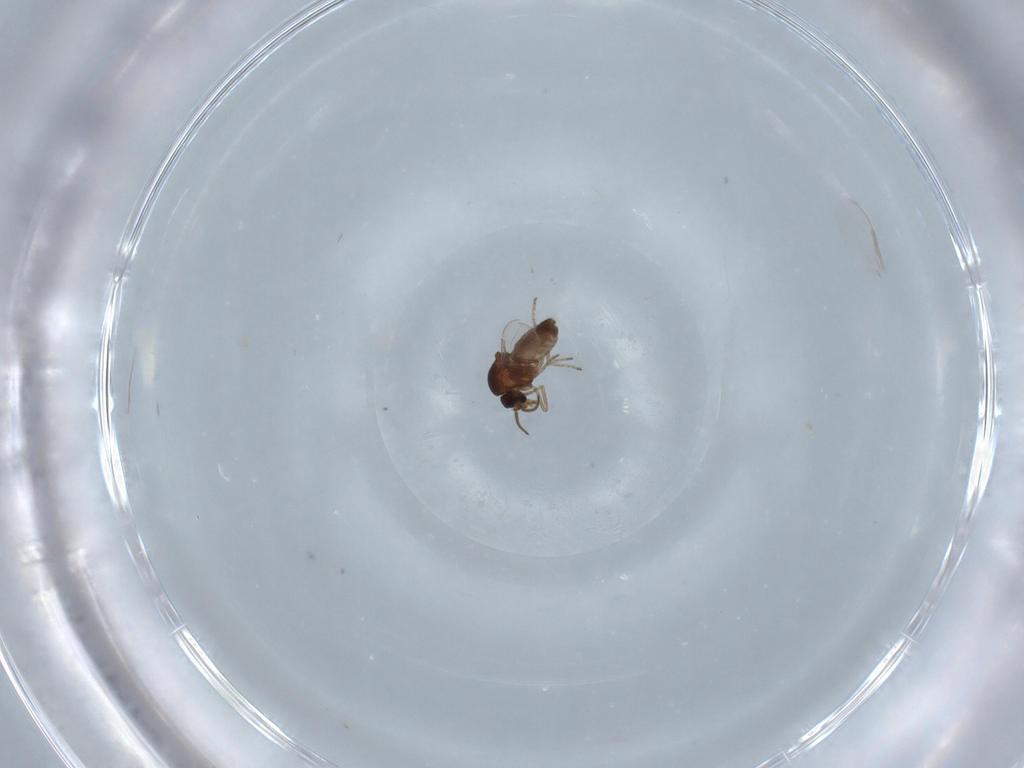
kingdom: Animalia
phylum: Arthropoda
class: Insecta
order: Diptera
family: Ceratopogonidae
